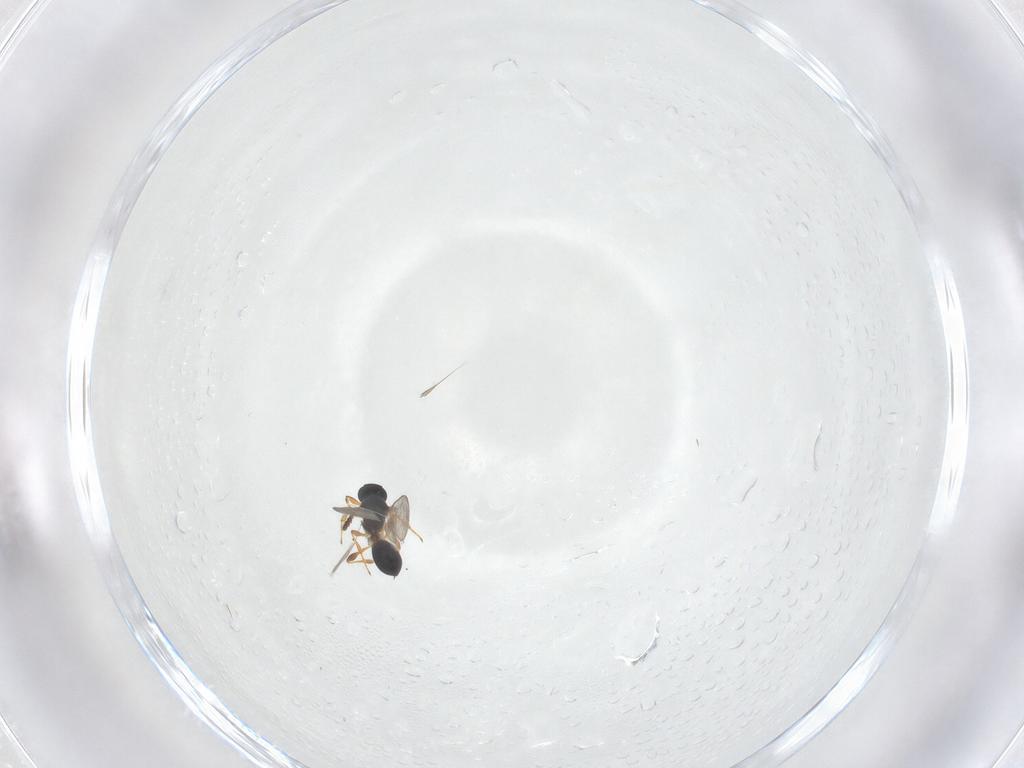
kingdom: Animalia
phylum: Arthropoda
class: Insecta
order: Hymenoptera
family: Platygastridae
